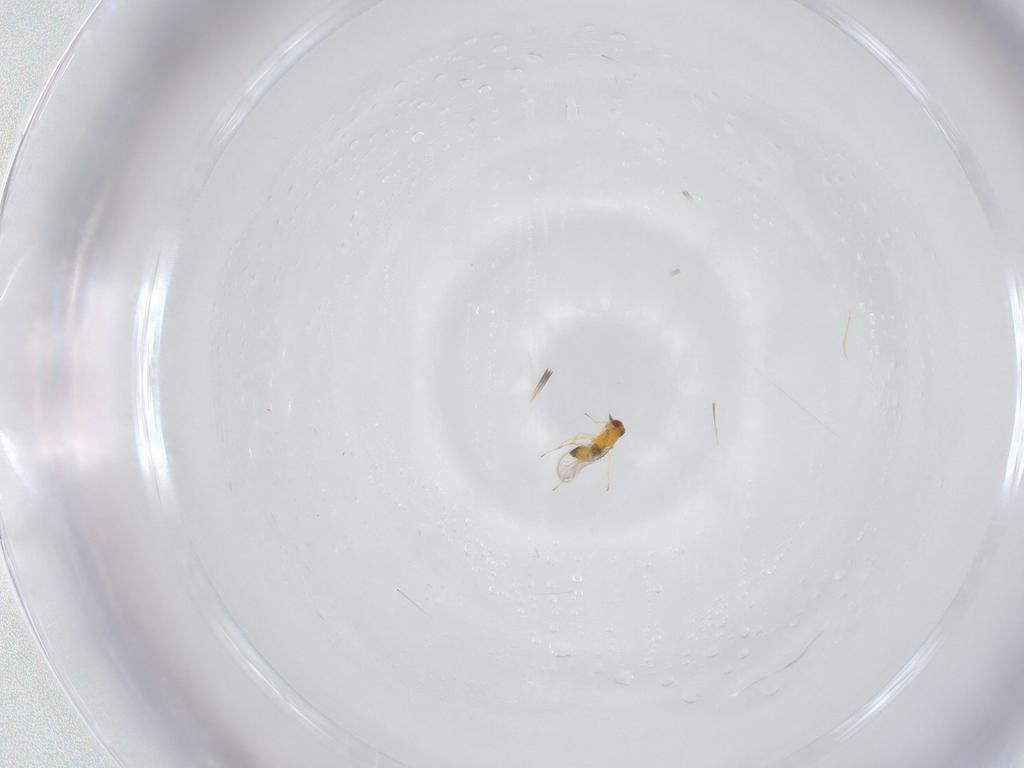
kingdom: Animalia
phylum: Arthropoda
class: Insecta
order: Hymenoptera
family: Trichogrammatidae
